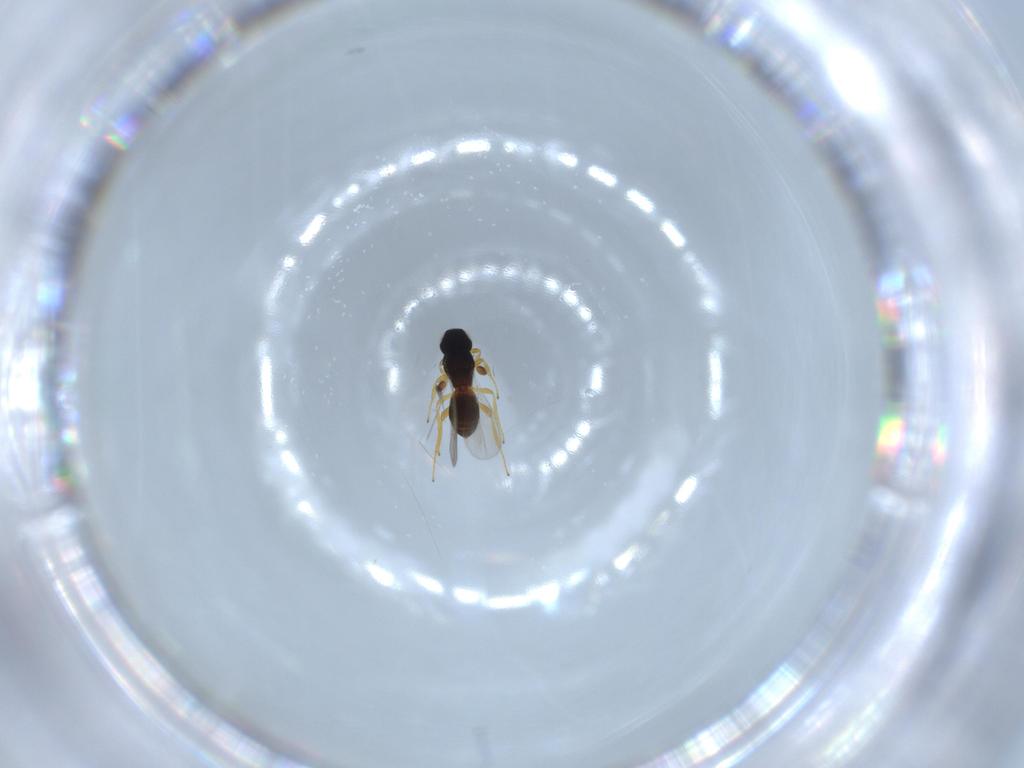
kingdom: Animalia
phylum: Arthropoda
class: Insecta
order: Hymenoptera
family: Platygastridae
